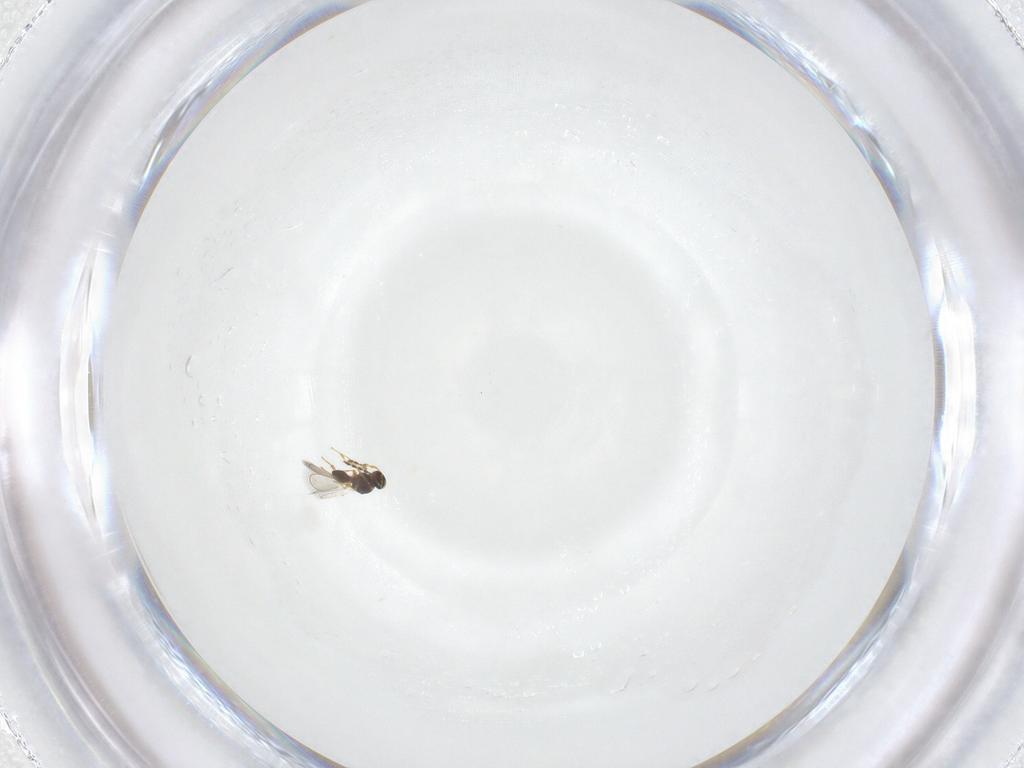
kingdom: Animalia
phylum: Arthropoda
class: Insecta
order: Hymenoptera
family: Platygastridae
